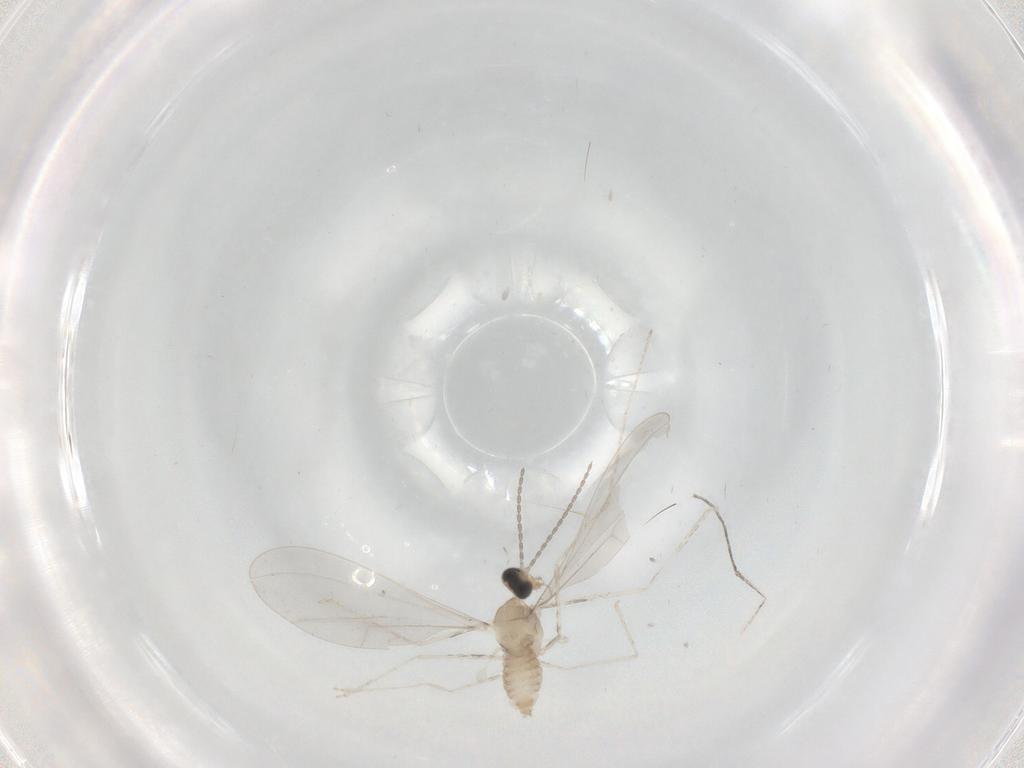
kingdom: Animalia
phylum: Arthropoda
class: Insecta
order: Diptera
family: Cecidomyiidae
